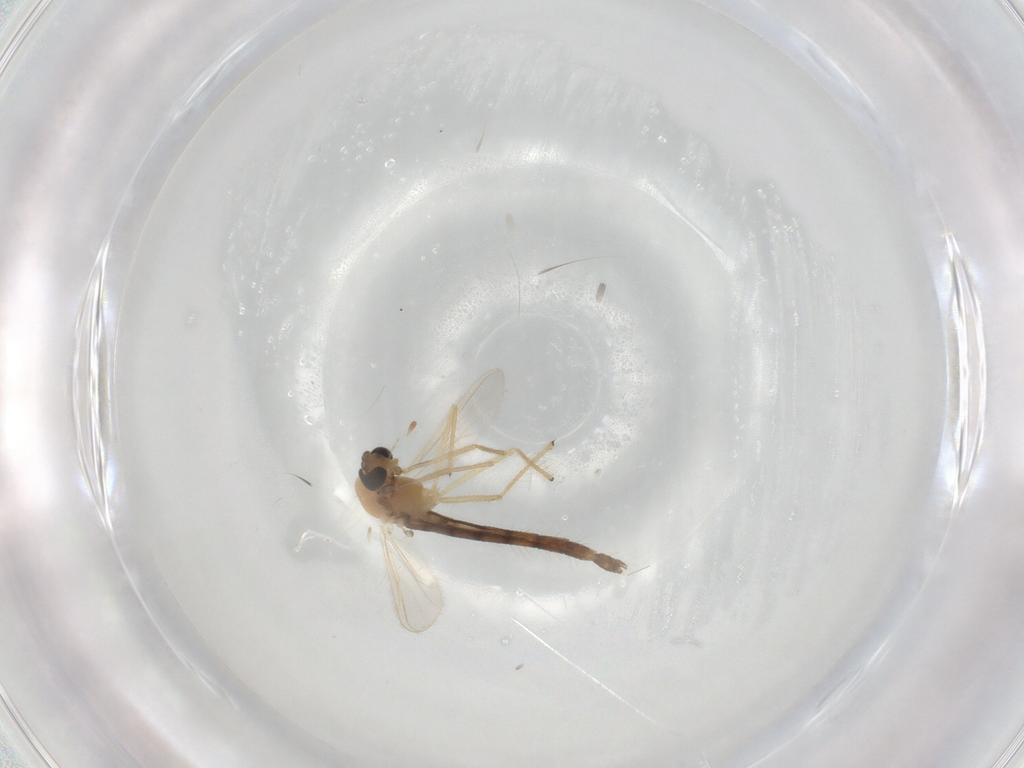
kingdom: Animalia
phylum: Arthropoda
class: Insecta
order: Diptera
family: Chironomidae
